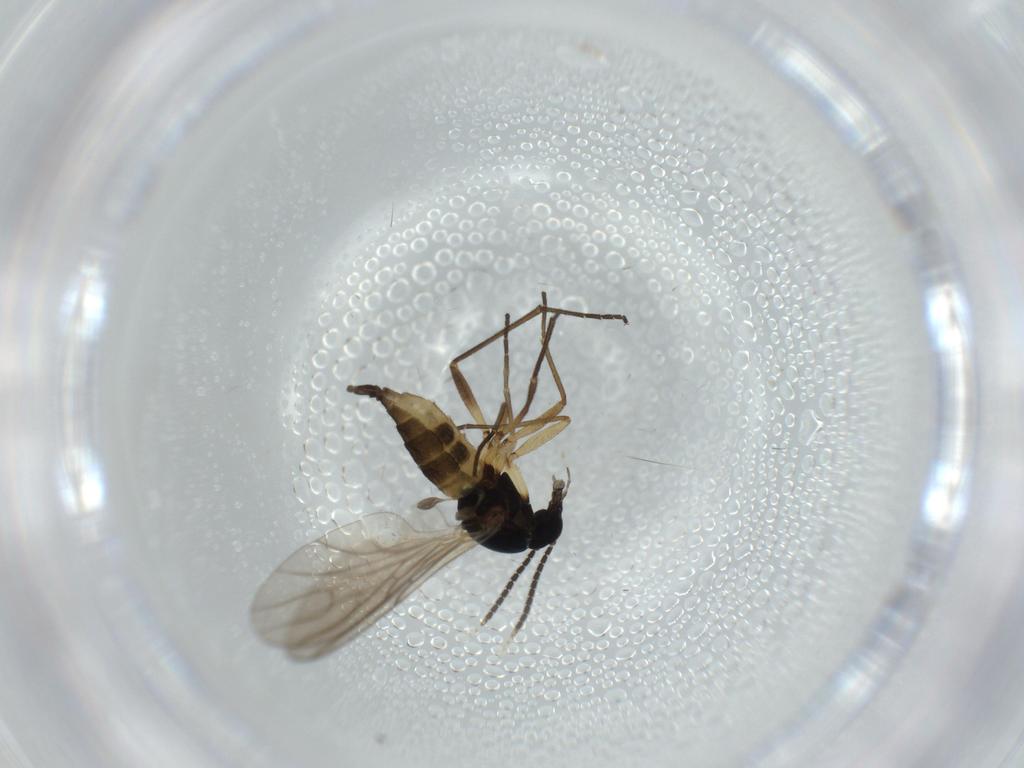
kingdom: Animalia
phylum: Arthropoda
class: Insecta
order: Diptera
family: Sciaridae
